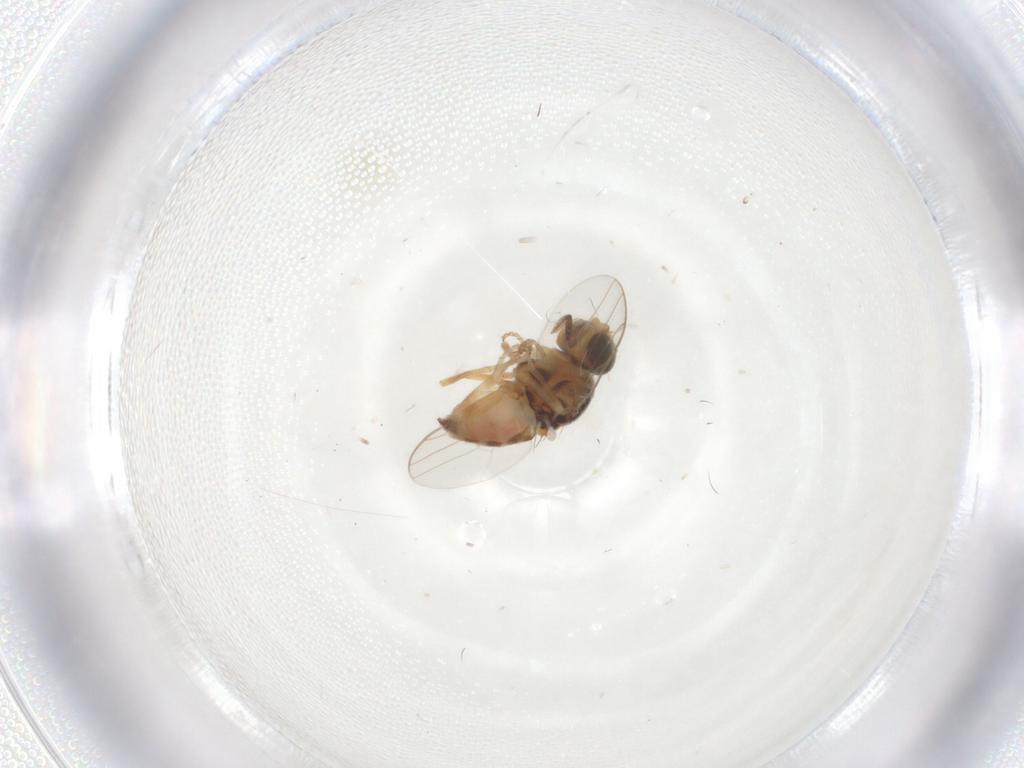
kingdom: Animalia
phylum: Arthropoda
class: Insecta
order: Diptera
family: Chloropidae
